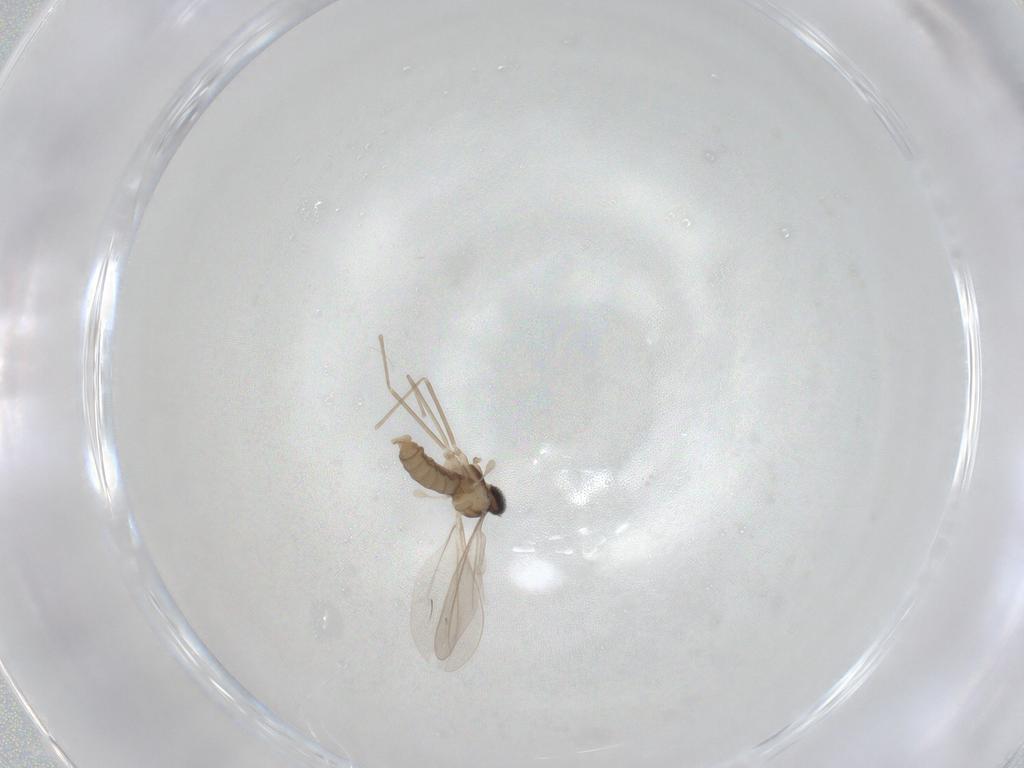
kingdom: Animalia
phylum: Arthropoda
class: Insecta
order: Diptera
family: Cecidomyiidae
